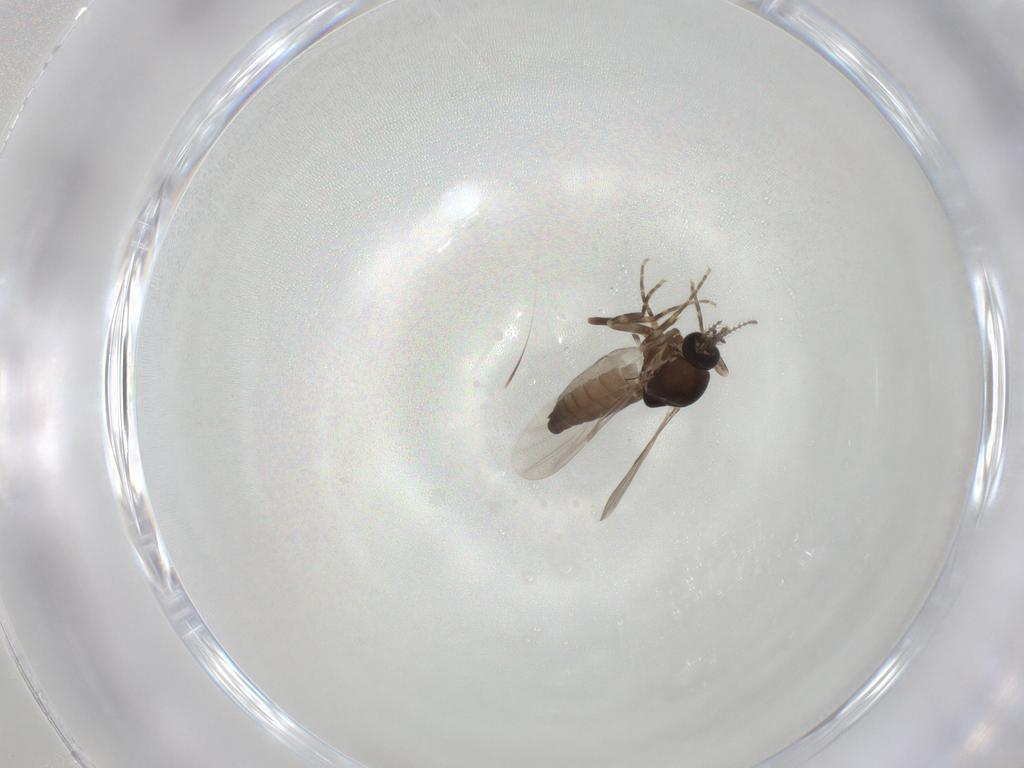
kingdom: Animalia
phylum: Arthropoda
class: Insecta
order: Diptera
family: Ceratopogonidae
